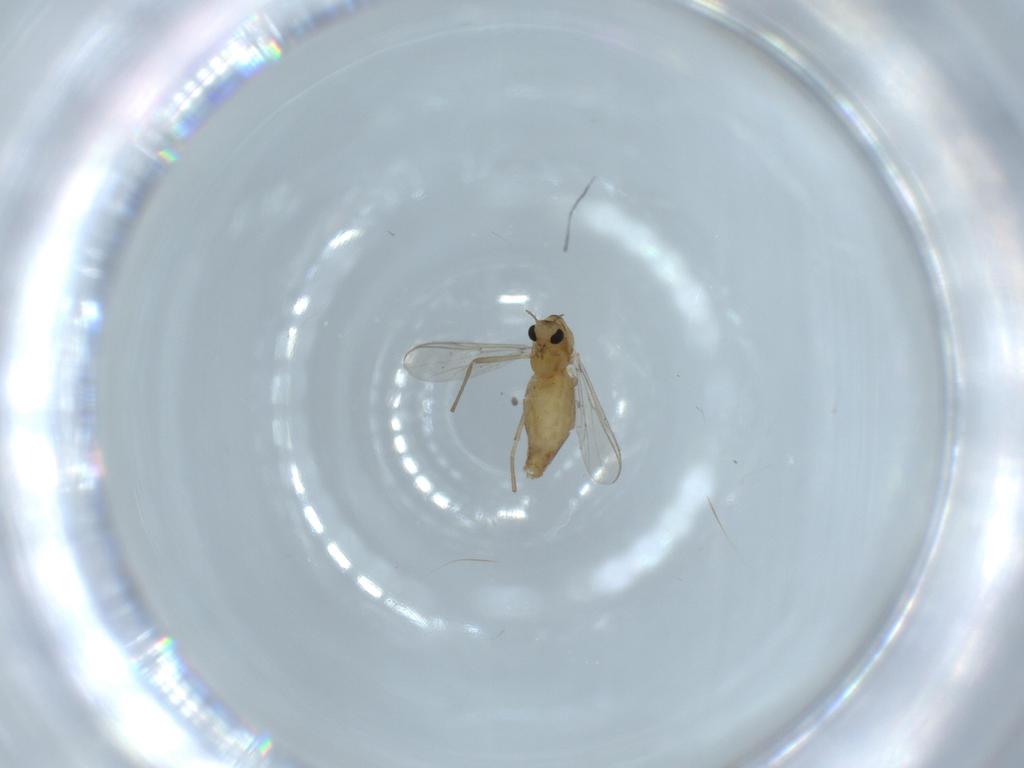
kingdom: Animalia
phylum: Arthropoda
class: Insecta
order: Diptera
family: Chironomidae
